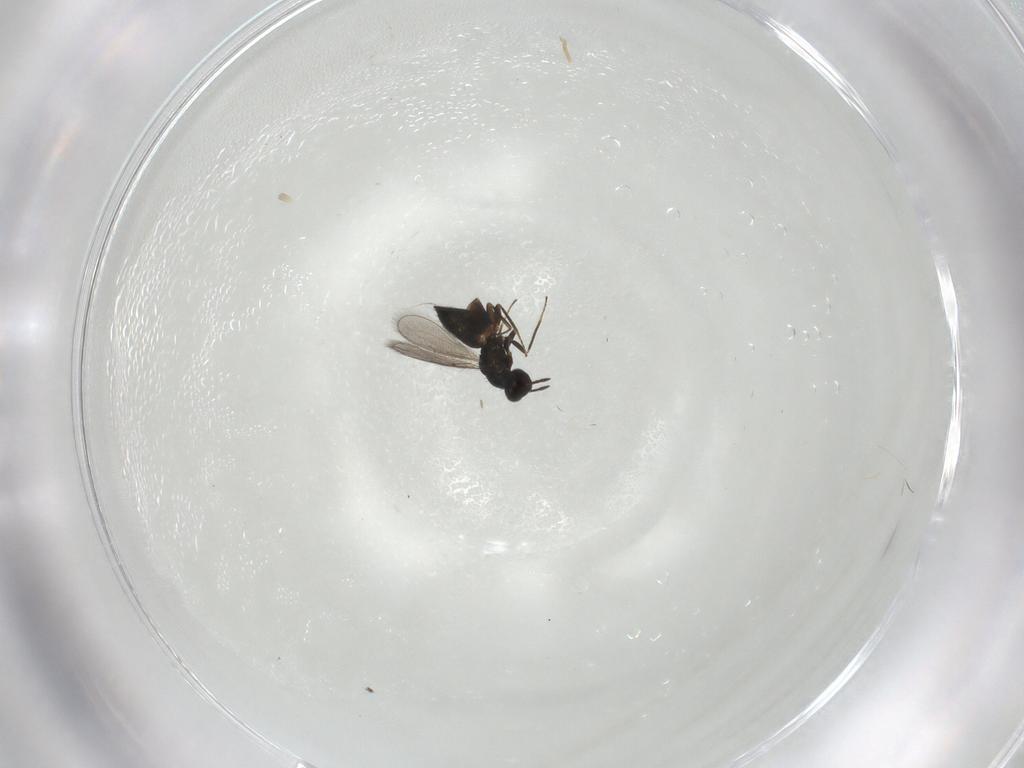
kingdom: Animalia
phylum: Arthropoda
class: Insecta
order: Hymenoptera
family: Eulophidae
